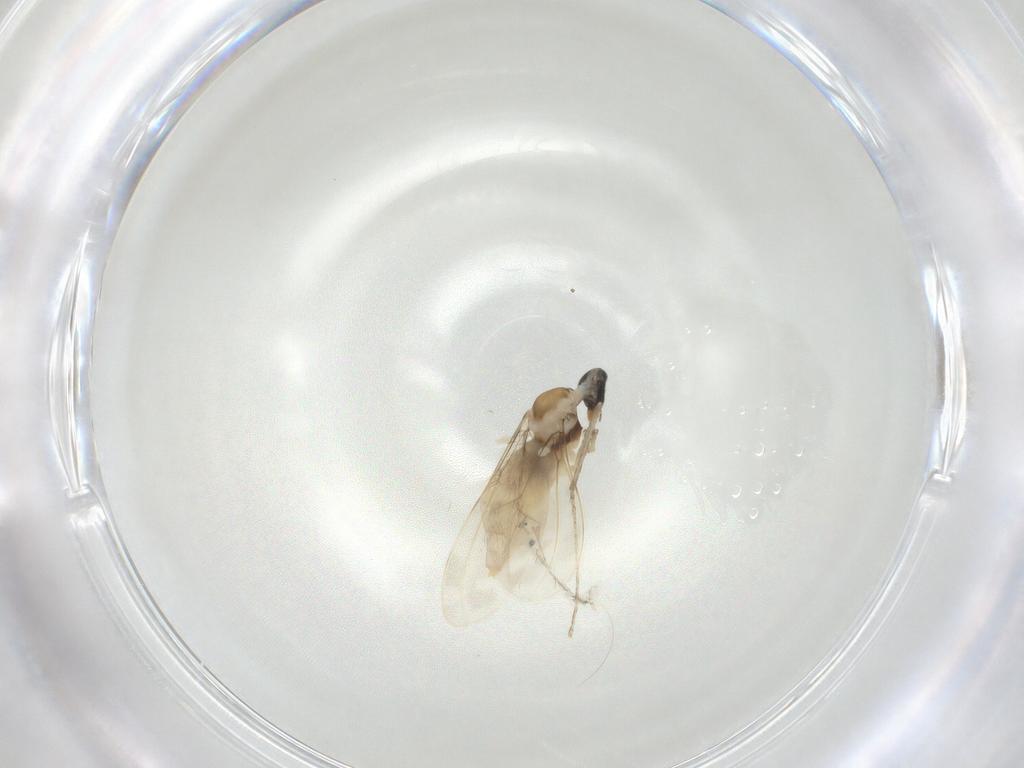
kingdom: Animalia
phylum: Arthropoda
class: Insecta
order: Diptera
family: Cecidomyiidae
